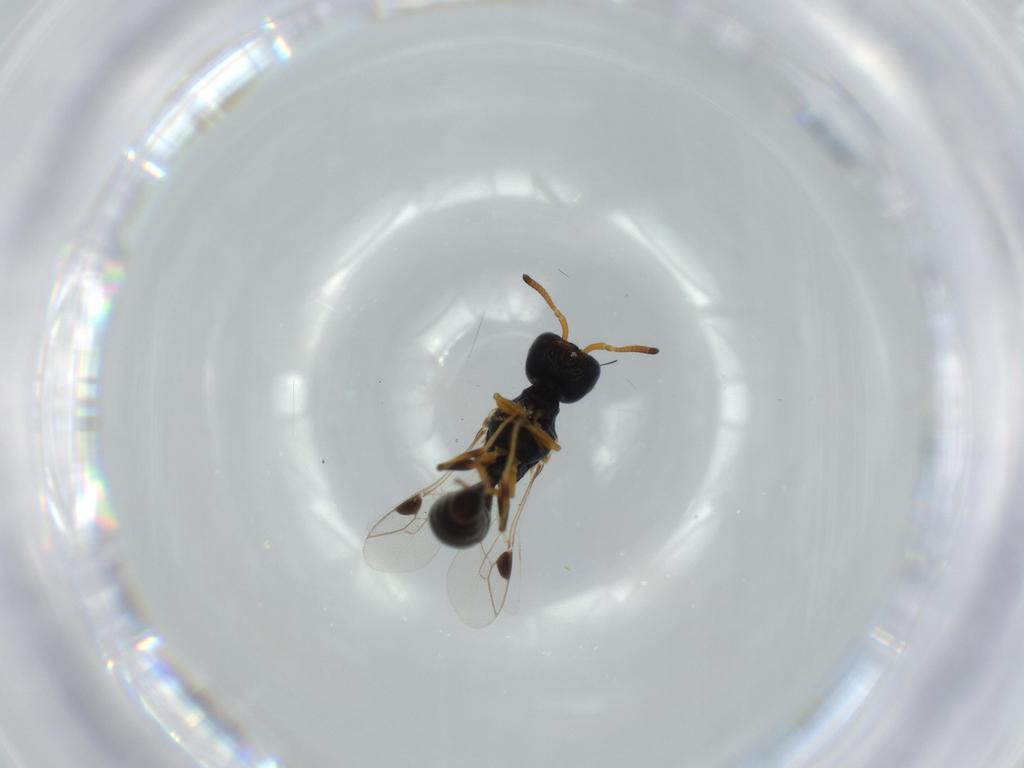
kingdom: Animalia
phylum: Arthropoda
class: Insecta
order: Hymenoptera
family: Pemphredonidae
